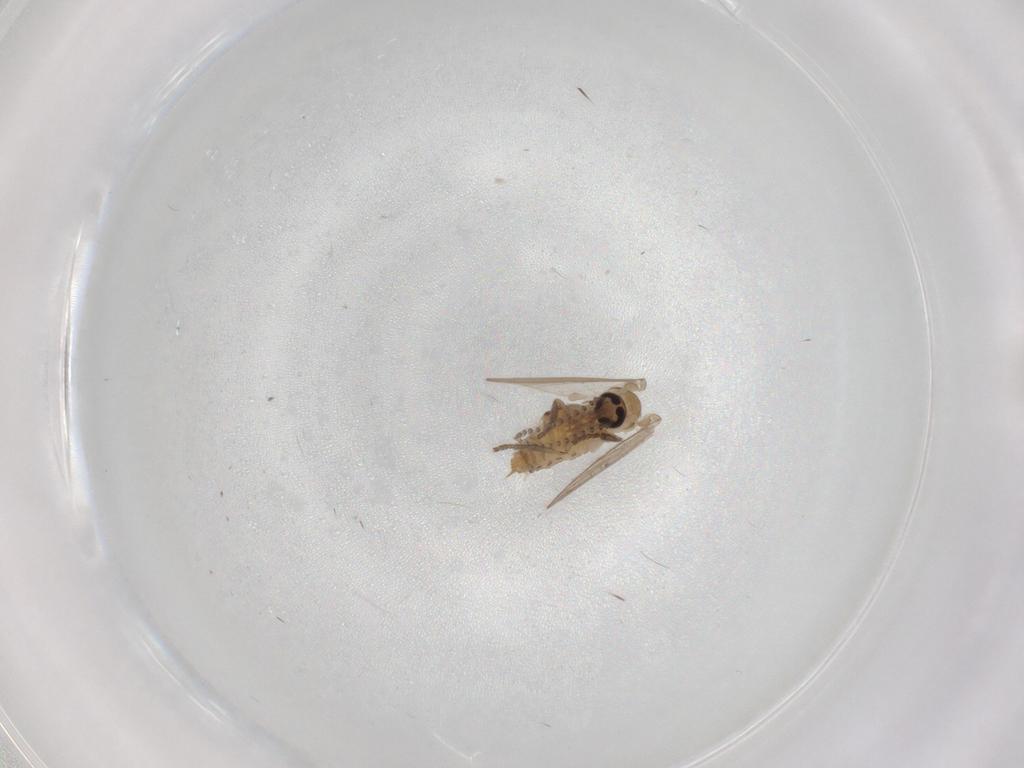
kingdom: Animalia
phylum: Arthropoda
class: Insecta
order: Diptera
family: Psychodidae
